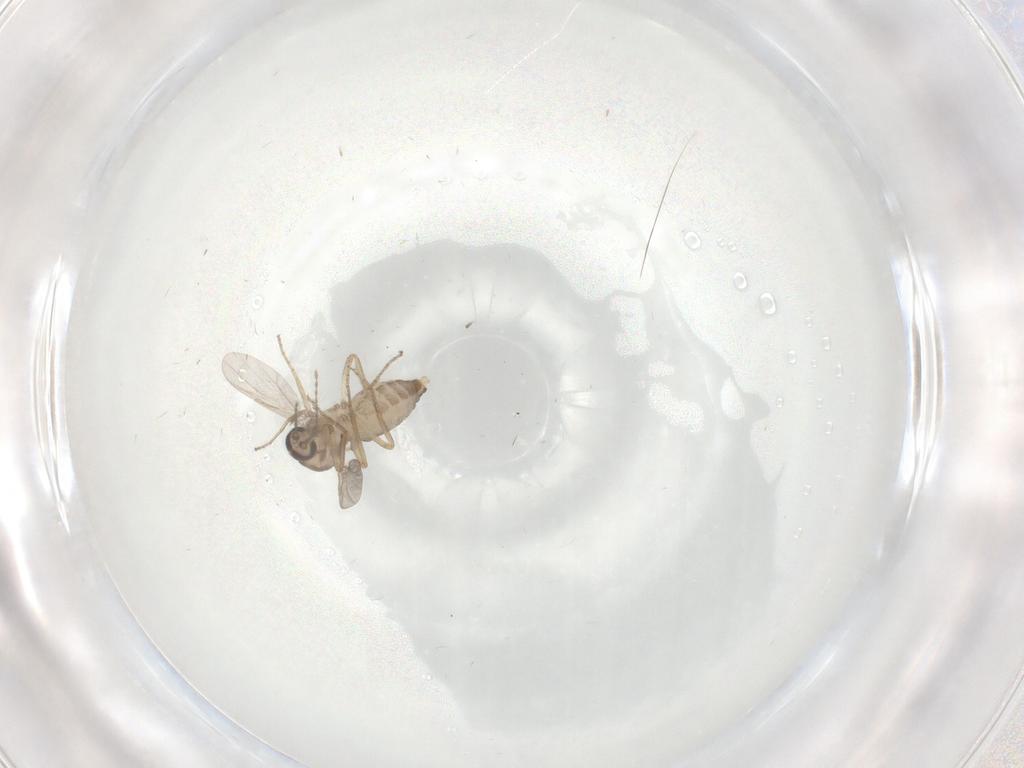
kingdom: Animalia
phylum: Arthropoda
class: Insecta
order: Diptera
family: Ceratopogonidae
